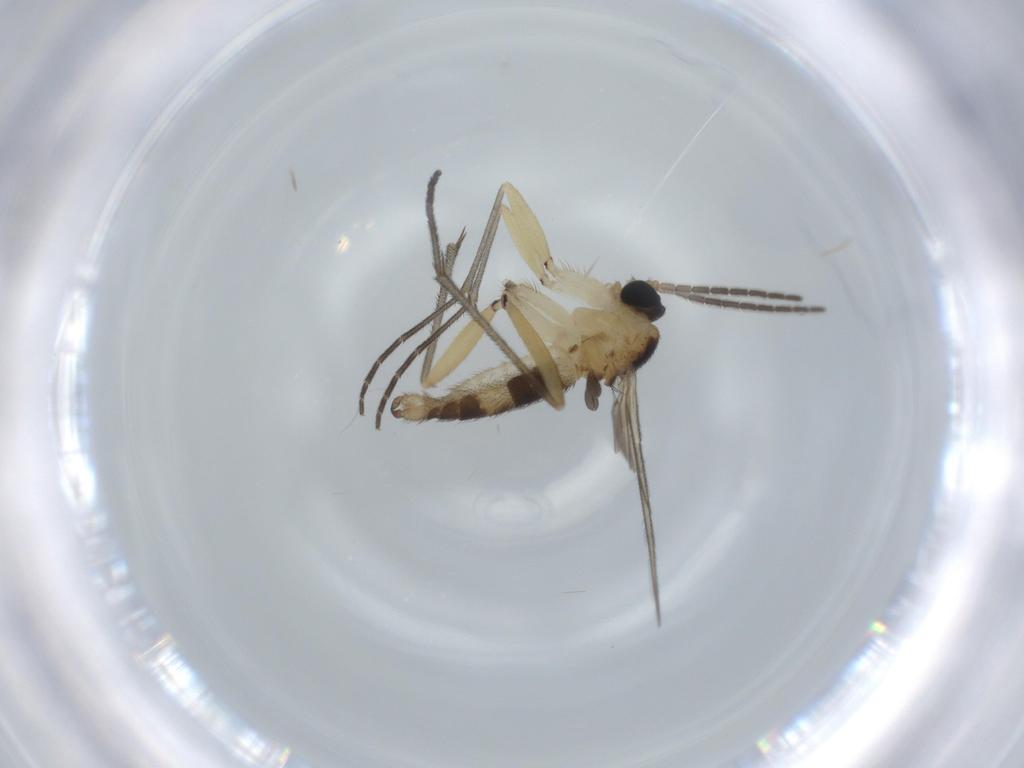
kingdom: Animalia
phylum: Arthropoda
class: Insecta
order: Diptera
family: Sciaridae
